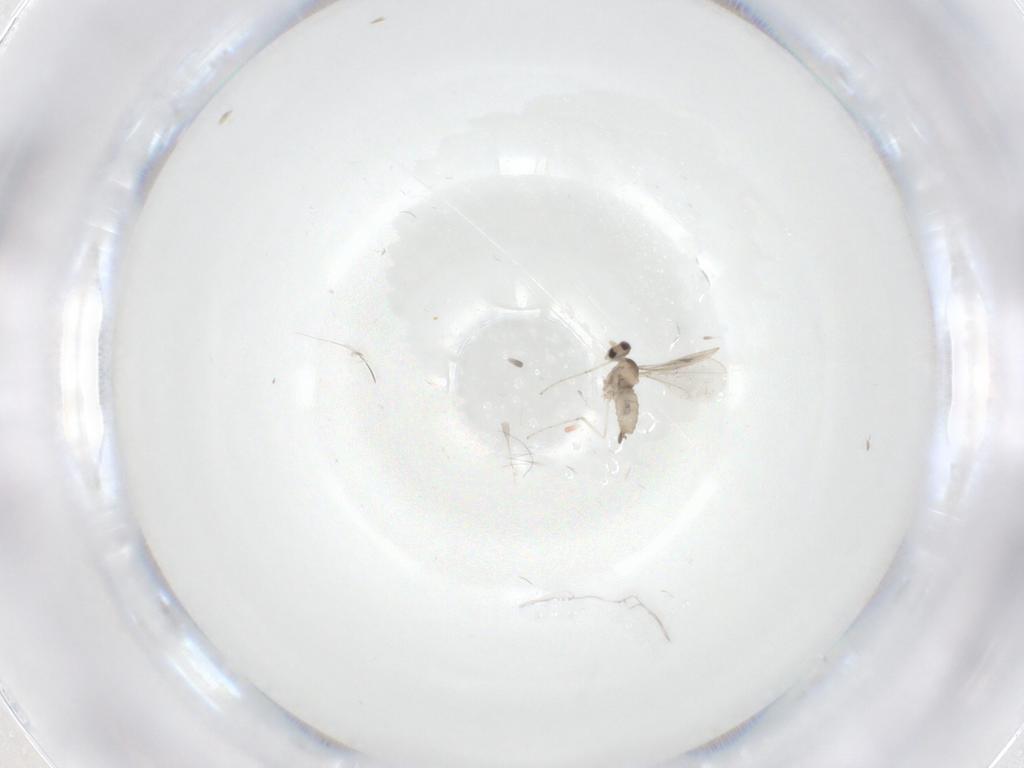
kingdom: Animalia
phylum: Arthropoda
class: Insecta
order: Diptera
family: Cecidomyiidae
